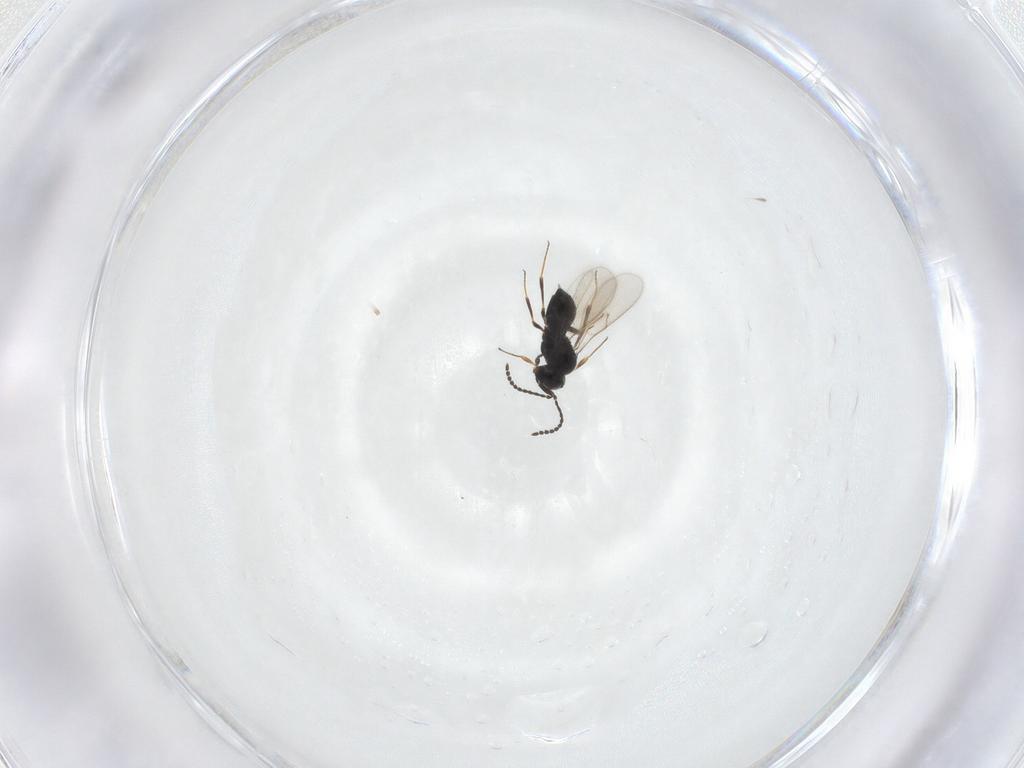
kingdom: Animalia
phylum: Arthropoda
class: Insecta
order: Hymenoptera
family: Scelionidae
